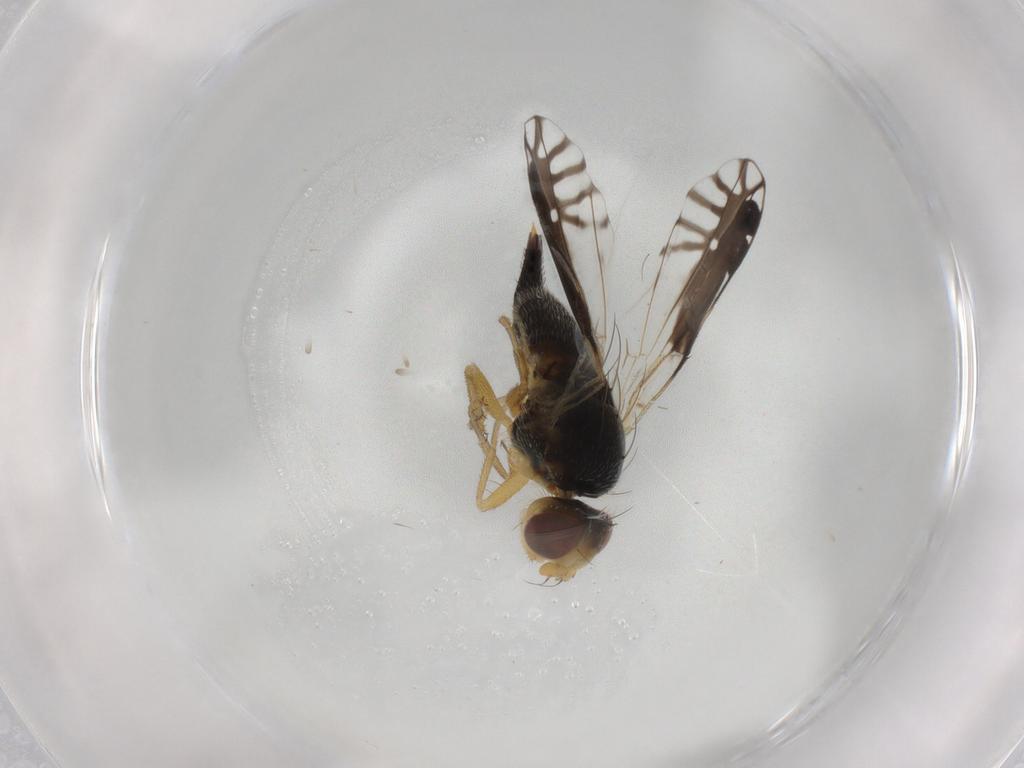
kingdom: Animalia
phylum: Arthropoda
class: Insecta
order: Diptera
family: Tephritidae
